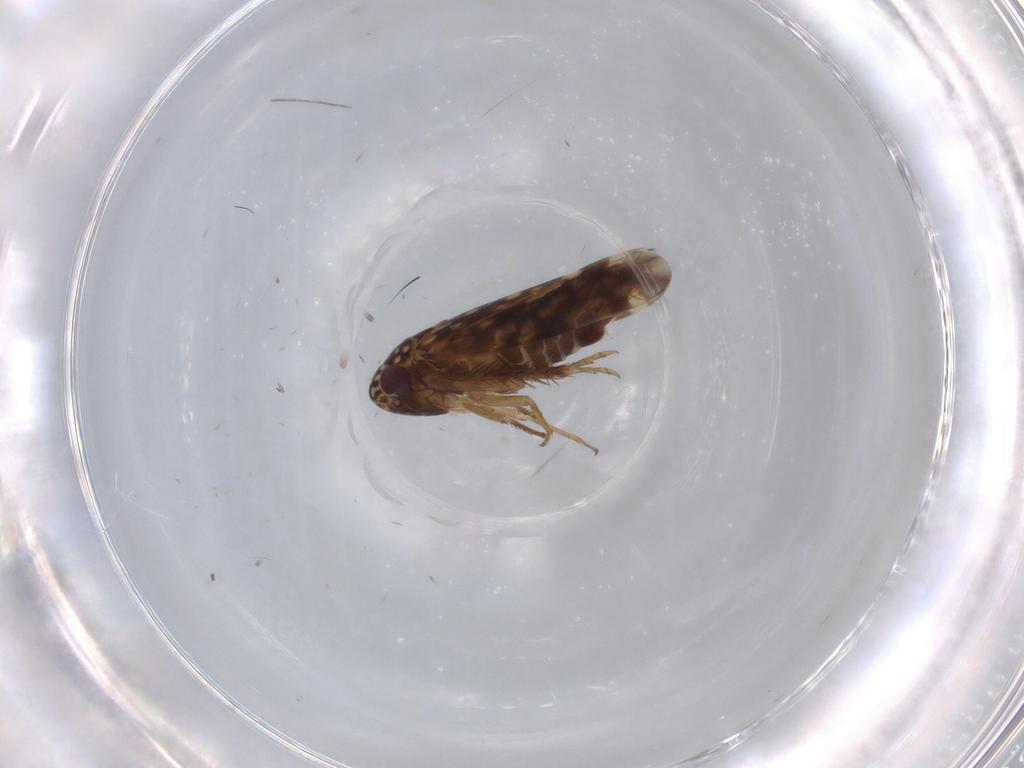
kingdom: Animalia
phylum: Arthropoda
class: Insecta
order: Hemiptera
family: Cicadellidae
